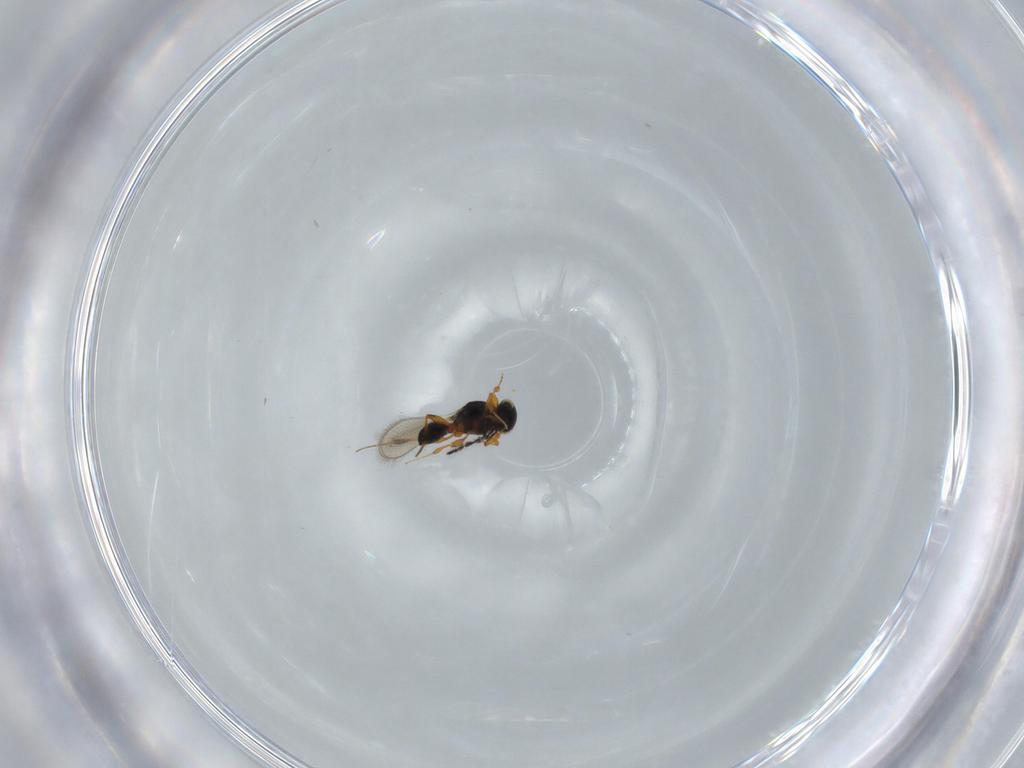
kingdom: Animalia
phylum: Arthropoda
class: Insecta
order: Hymenoptera
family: Platygastridae
